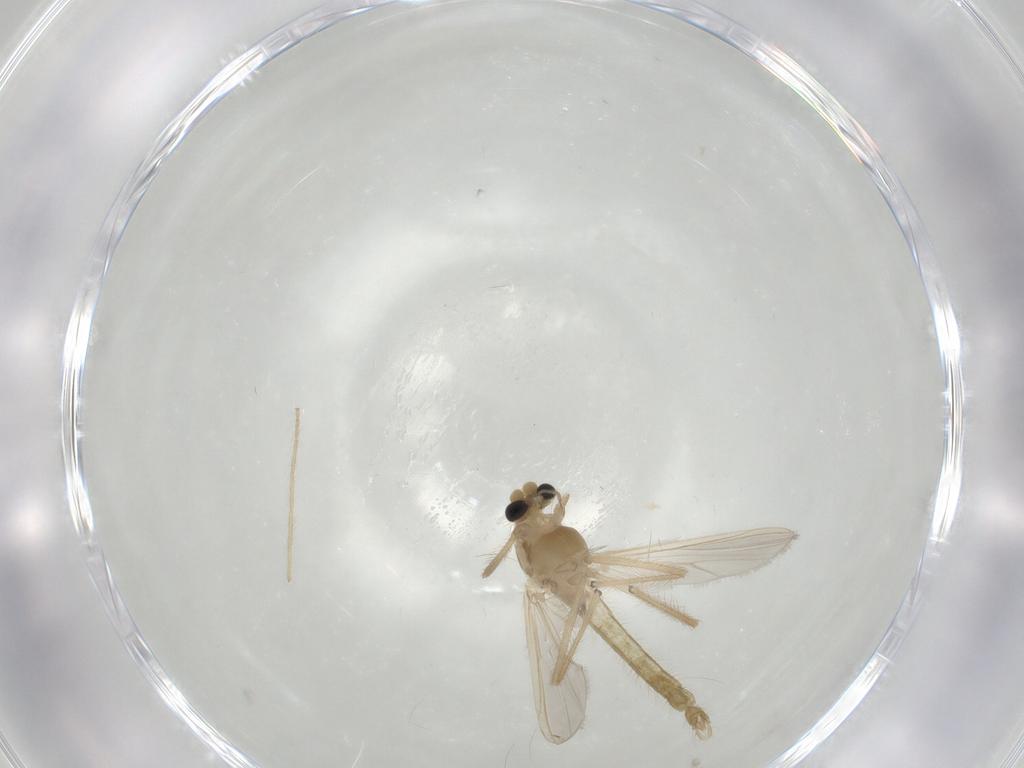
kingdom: Animalia
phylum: Arthropoda
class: Insecta
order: Diptera
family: Chironomidae
